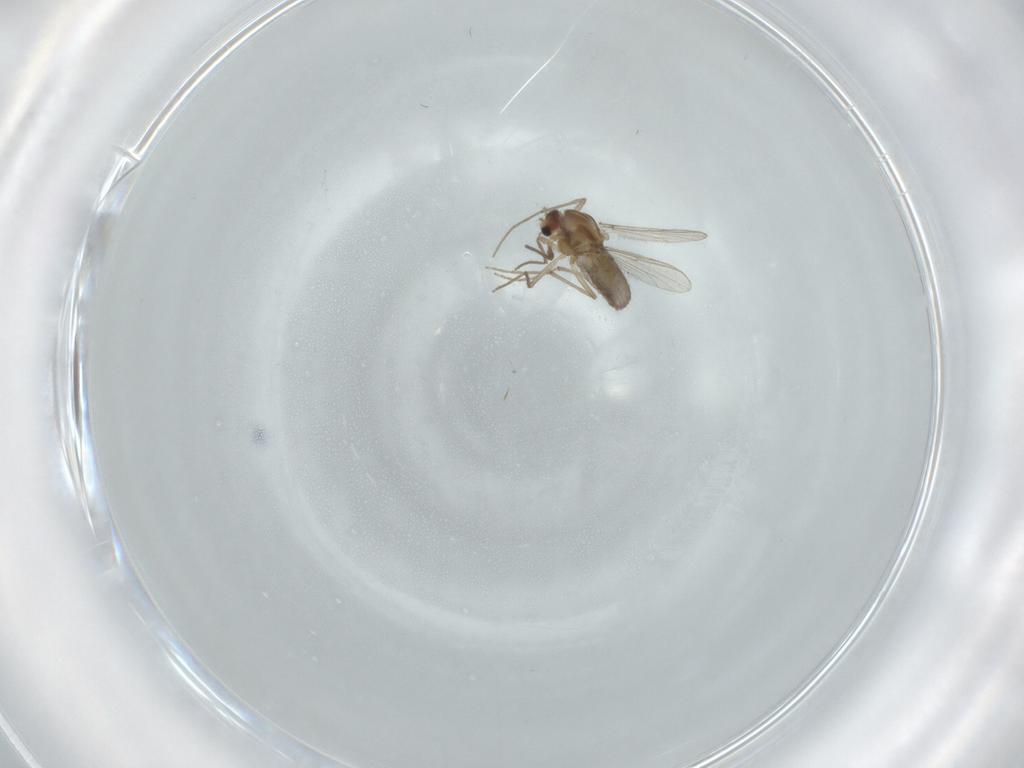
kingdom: Animalia
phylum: Arthropoda
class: Insecta
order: Diptera
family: Chironomidae
